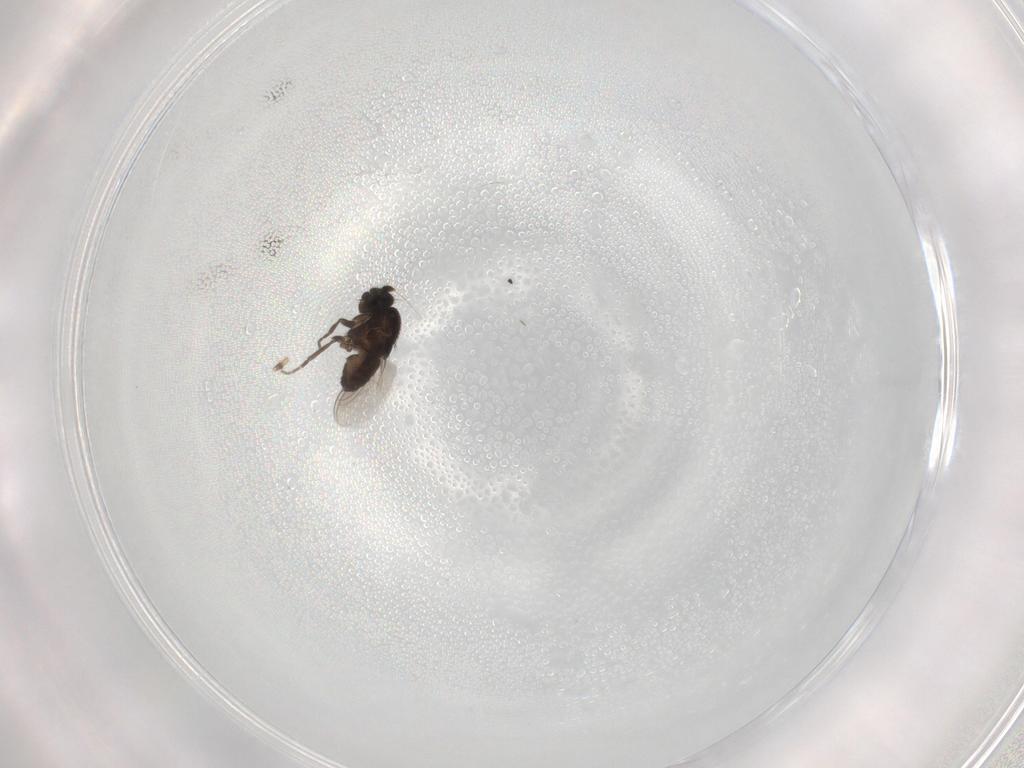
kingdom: Animalia
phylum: Arthropoda
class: Insecta
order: Diptera
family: Chironomidae
